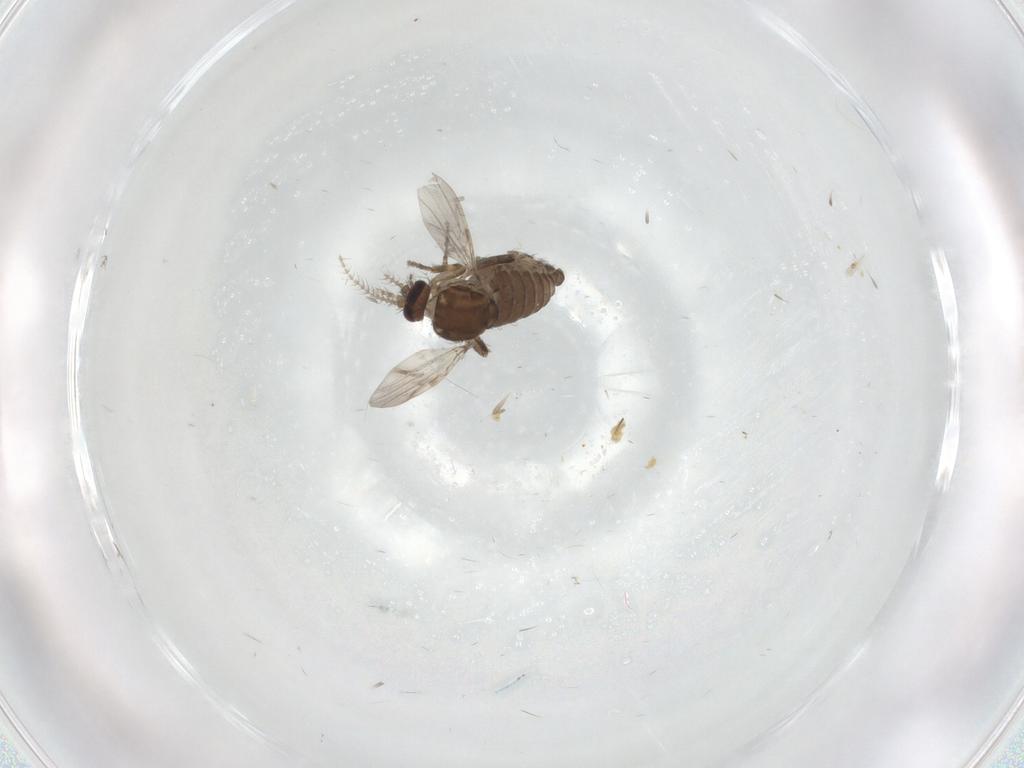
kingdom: Animalia
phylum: Arthropoda
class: Insecta
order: Diptera
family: Ceratopogonidae
